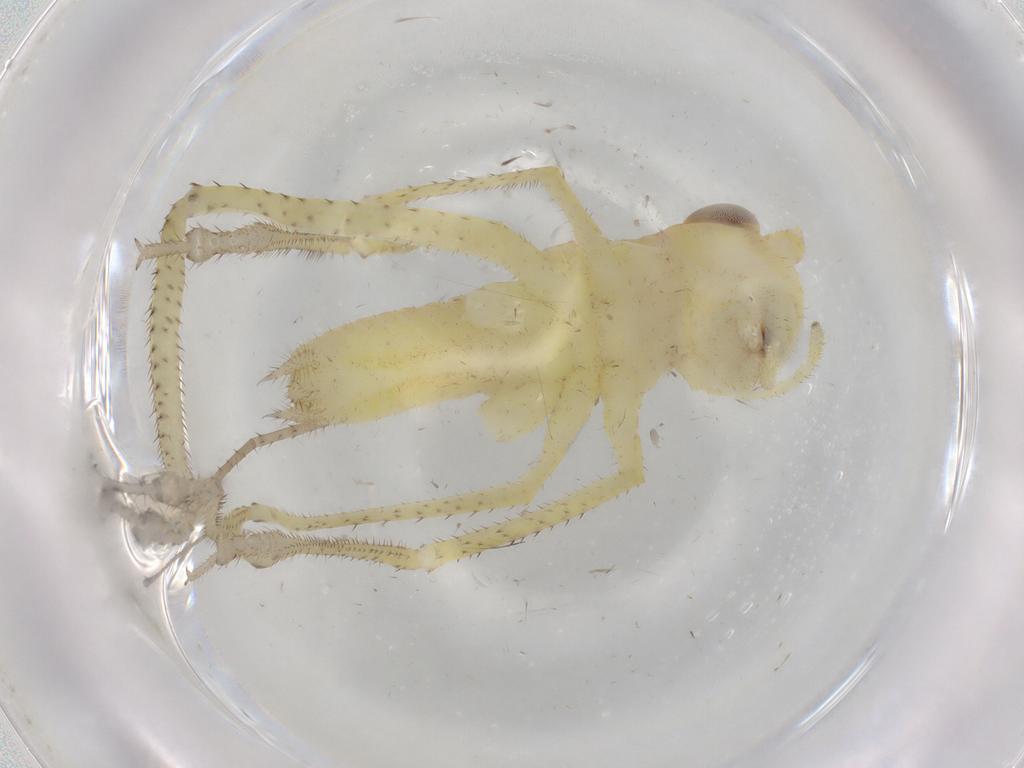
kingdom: Animalia
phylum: Arthropoda
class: Insecta
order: Orthoptera
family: Tettigoniidae
